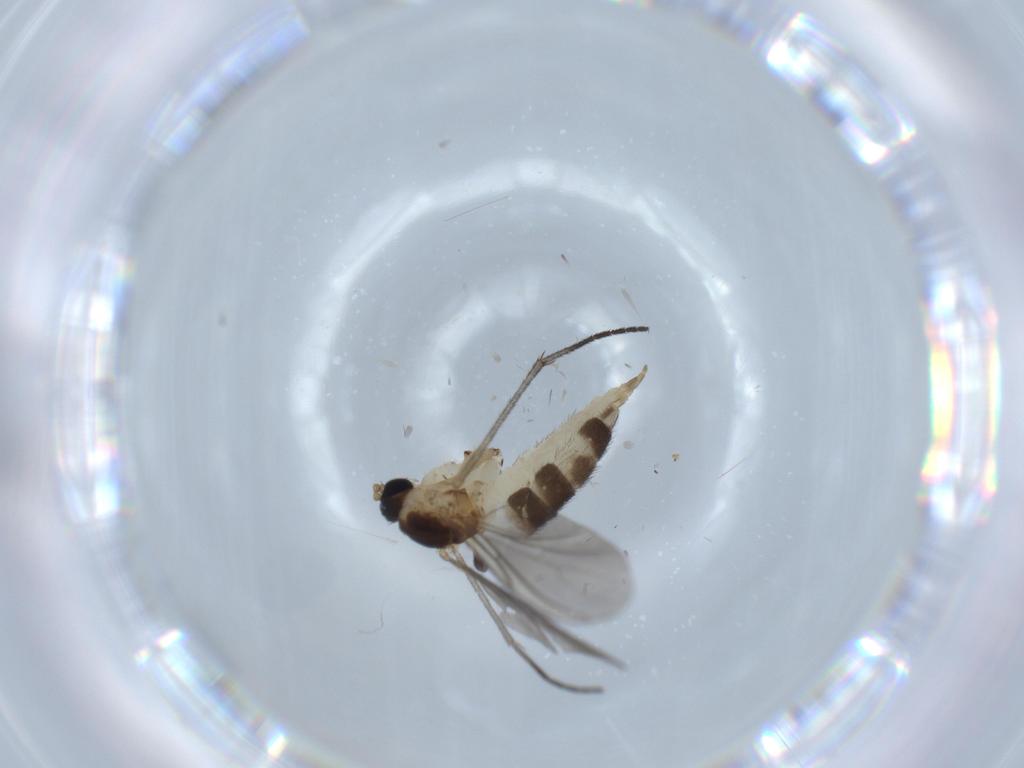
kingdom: Animalia
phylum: Arthropoda
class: Insecta
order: Diptera
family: Sciaridae
